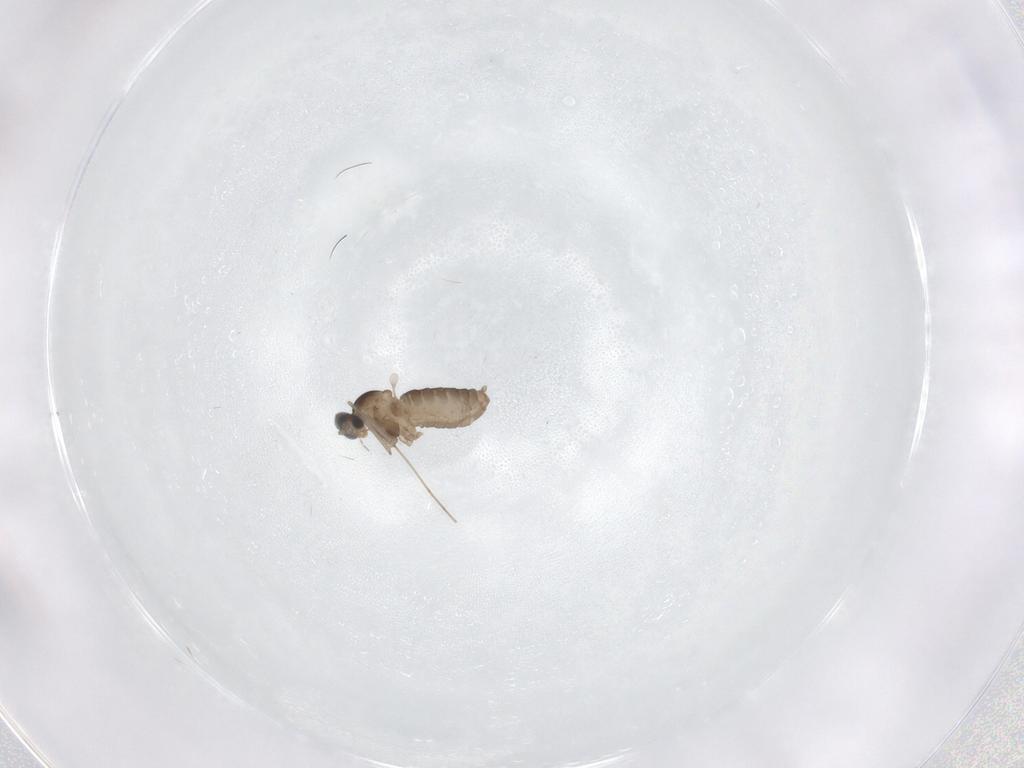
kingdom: Animalia
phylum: Arthropoda
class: Insecta
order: Diptera
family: Cecidomyiidae
